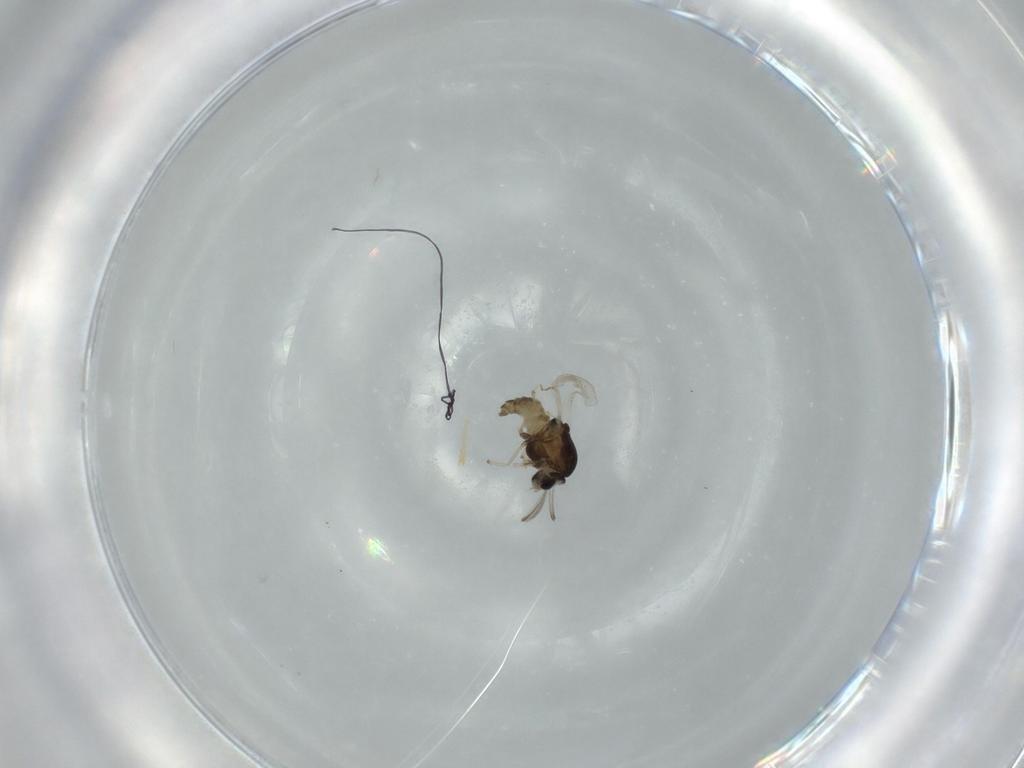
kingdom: Animalia
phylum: Arthropoda
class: Insecta
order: Diptera
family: Chironomidae
